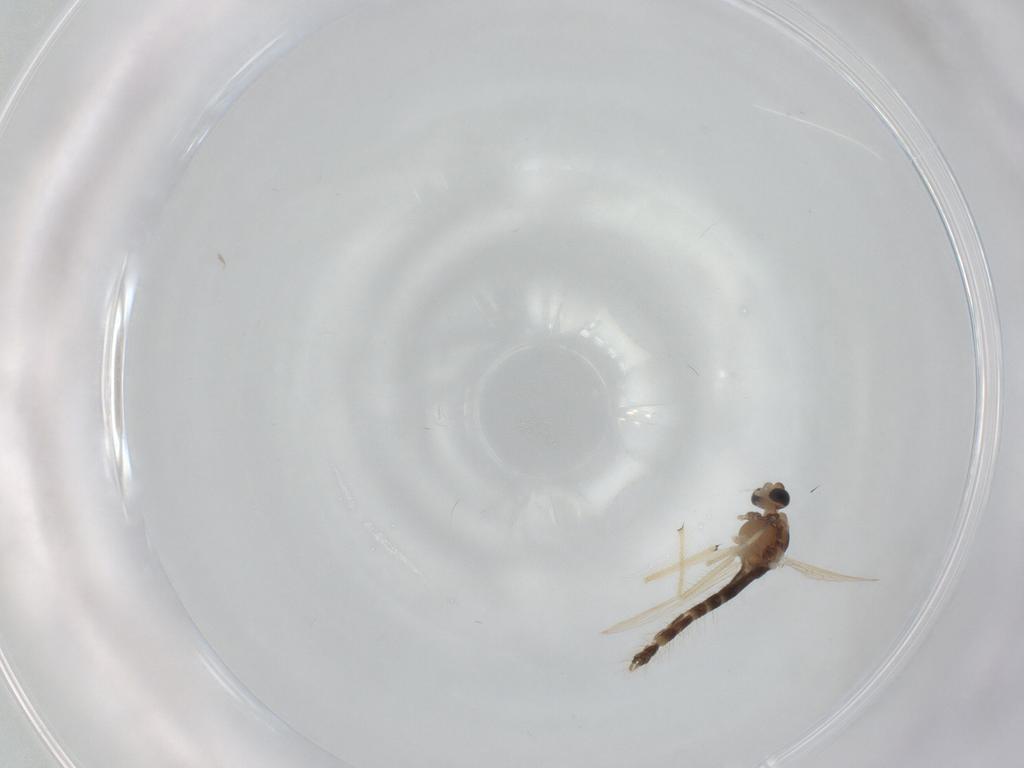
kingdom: Animalia
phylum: Arthropoda
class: Insecta
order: Diptera
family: Chironomidae
